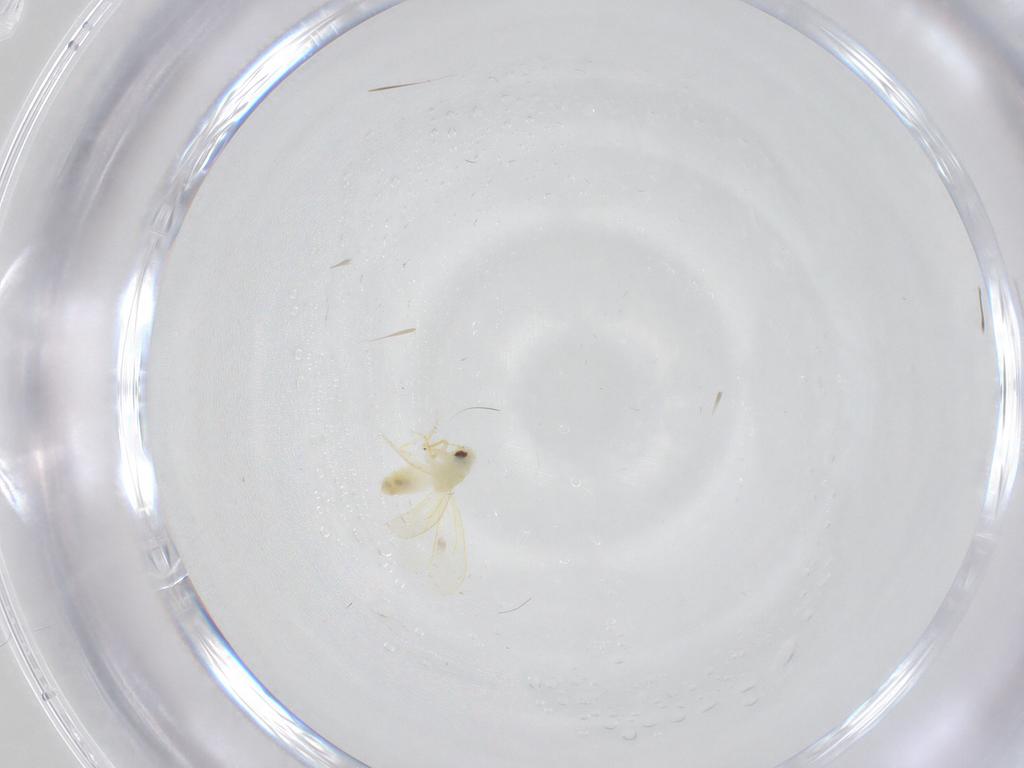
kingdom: Animalia
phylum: Arthropoda
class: Insecta
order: Hemiptera
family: Aleyrodidae
